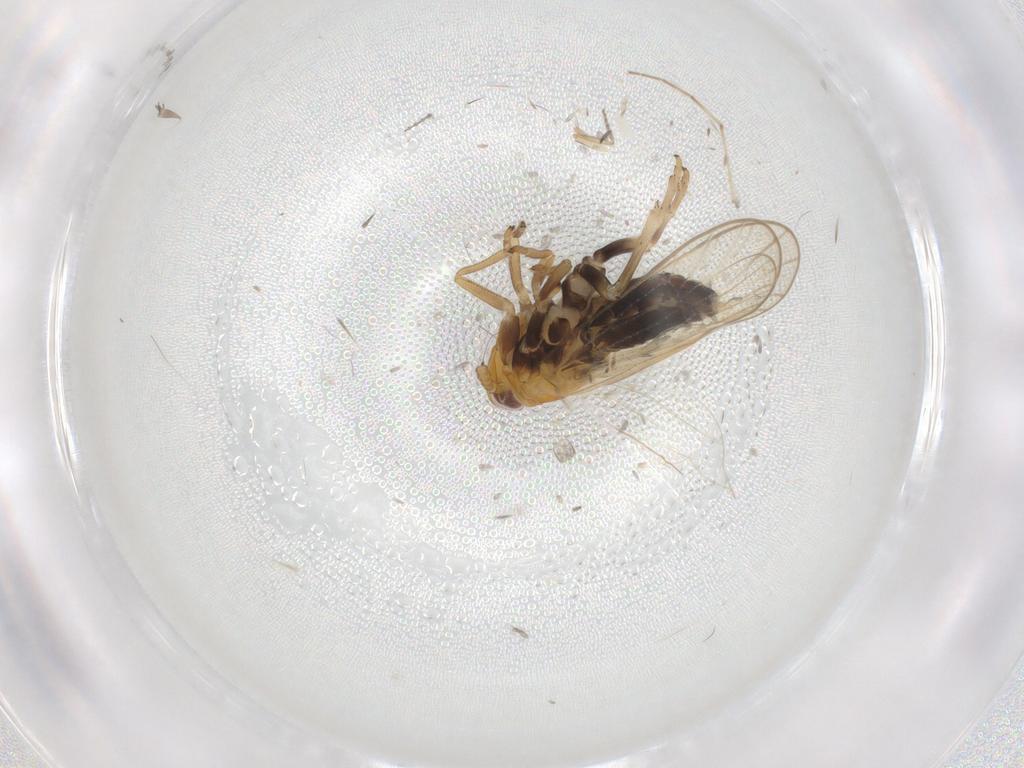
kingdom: Animalia
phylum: Arthropoda
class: Insecta
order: Hemiptera
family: Delphacidae
